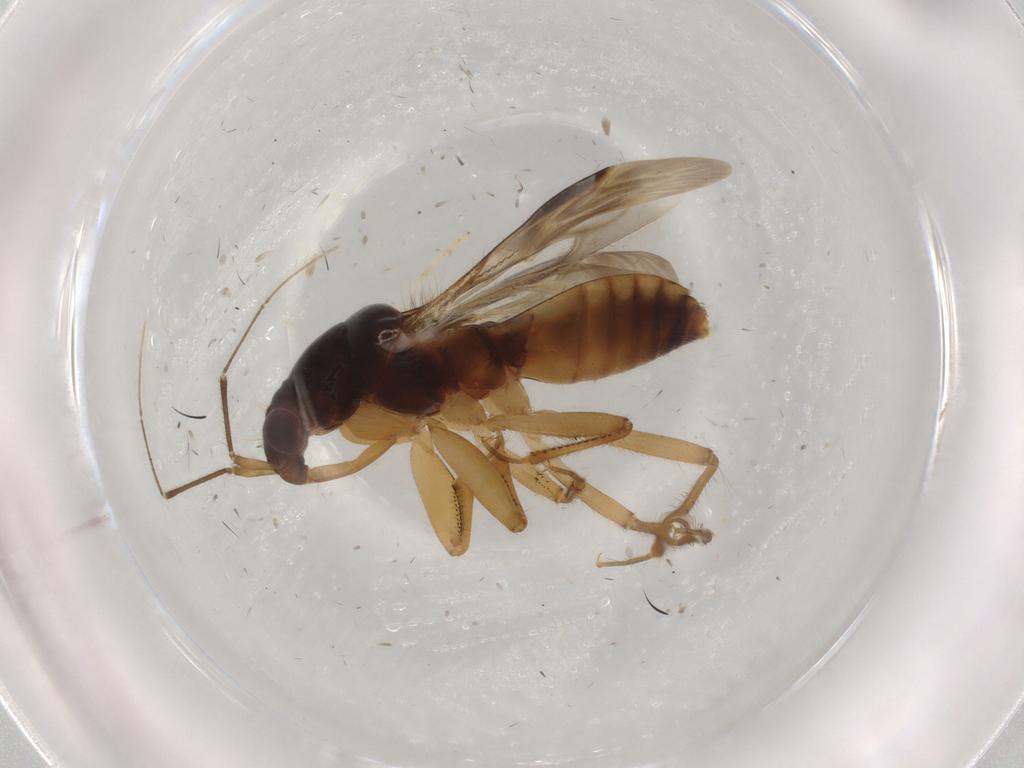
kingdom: Animalia
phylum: Arthropoda
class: Insecta
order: Hemiptera
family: Nabidae
